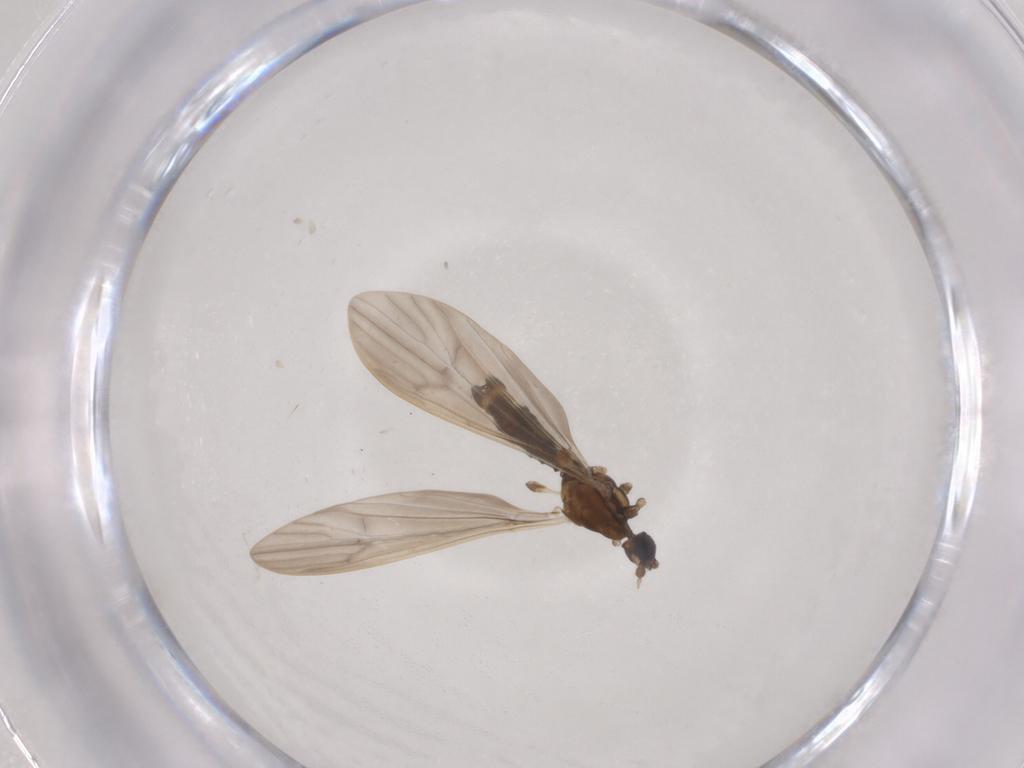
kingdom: Animalia
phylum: Arthropoda
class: Insecta
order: Diptera
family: Limoniidae
